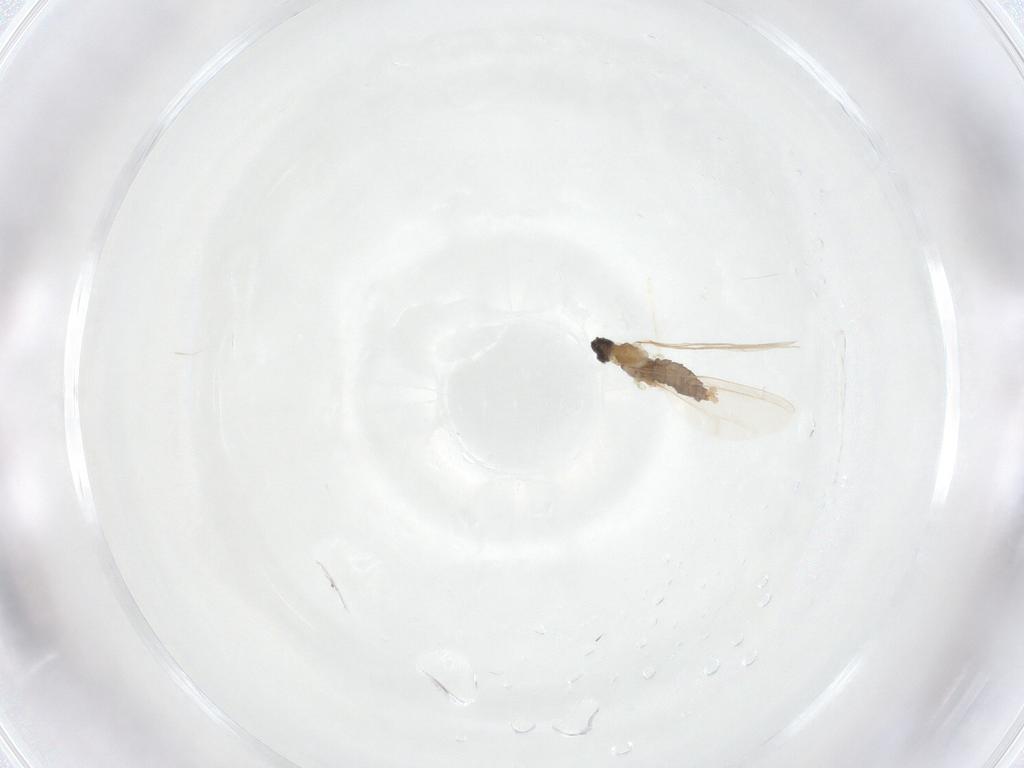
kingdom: Animalia
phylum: Arthropoda
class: Insecta
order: Diptera
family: Cecidomyiidae
